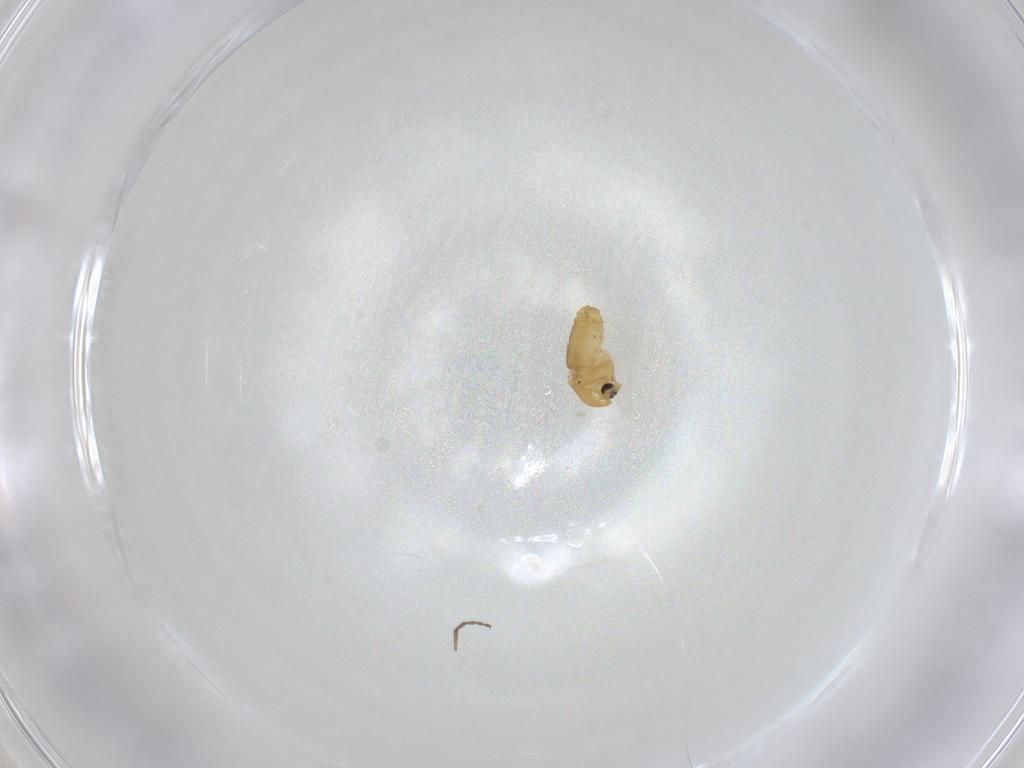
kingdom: Animalia
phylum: Arthropoda
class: Insecta
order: Diptera
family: Chironomidae
